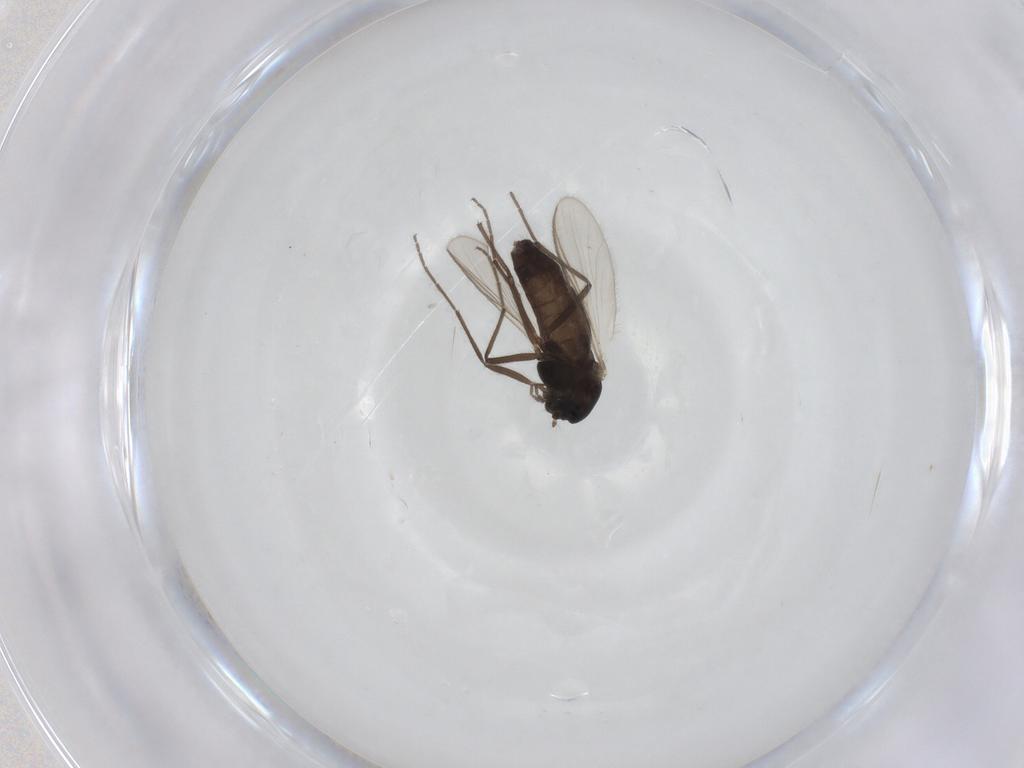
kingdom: Animalia
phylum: Arthropoda
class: Insecta
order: Diptera
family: Chironomidae
